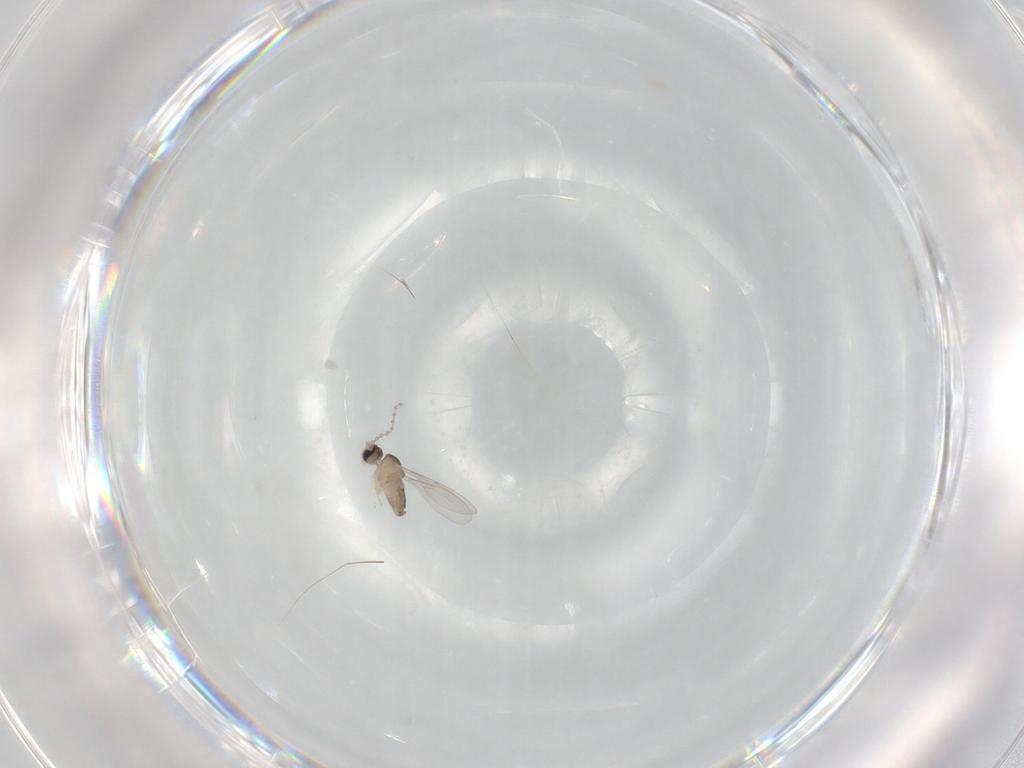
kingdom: Animalia
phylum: Arthropoda
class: Insecta
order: Diptera
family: Cecidomyiidae
